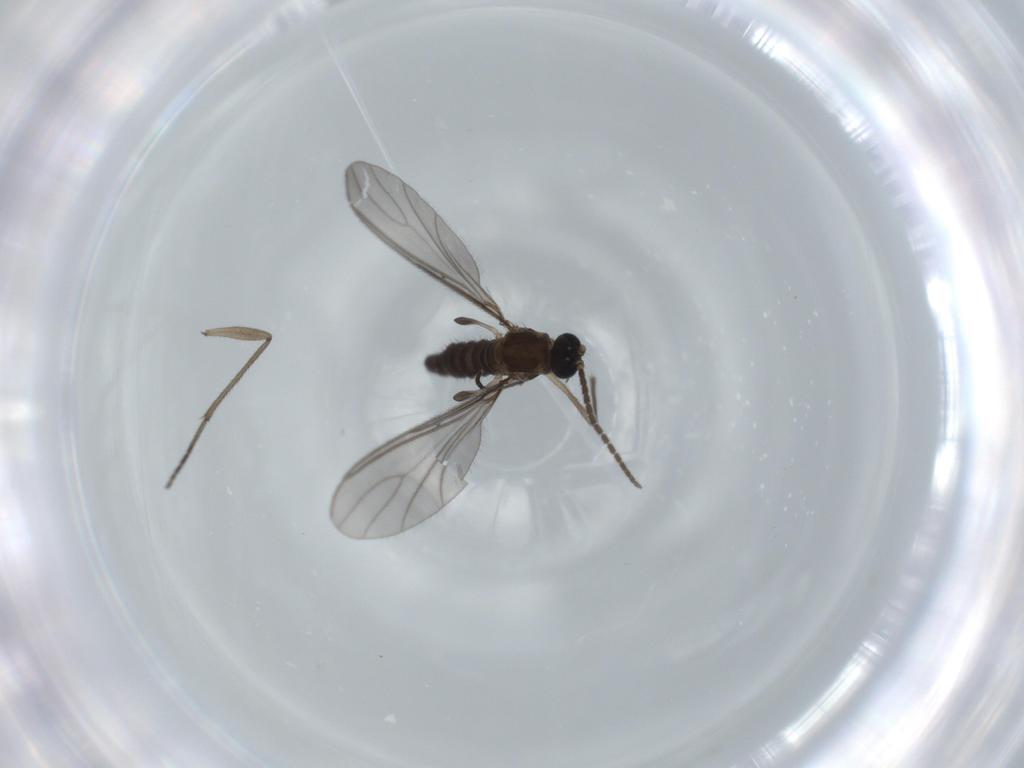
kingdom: Animalia
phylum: Arthropoda
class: Insecta
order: Diptera
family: Sciaridae
